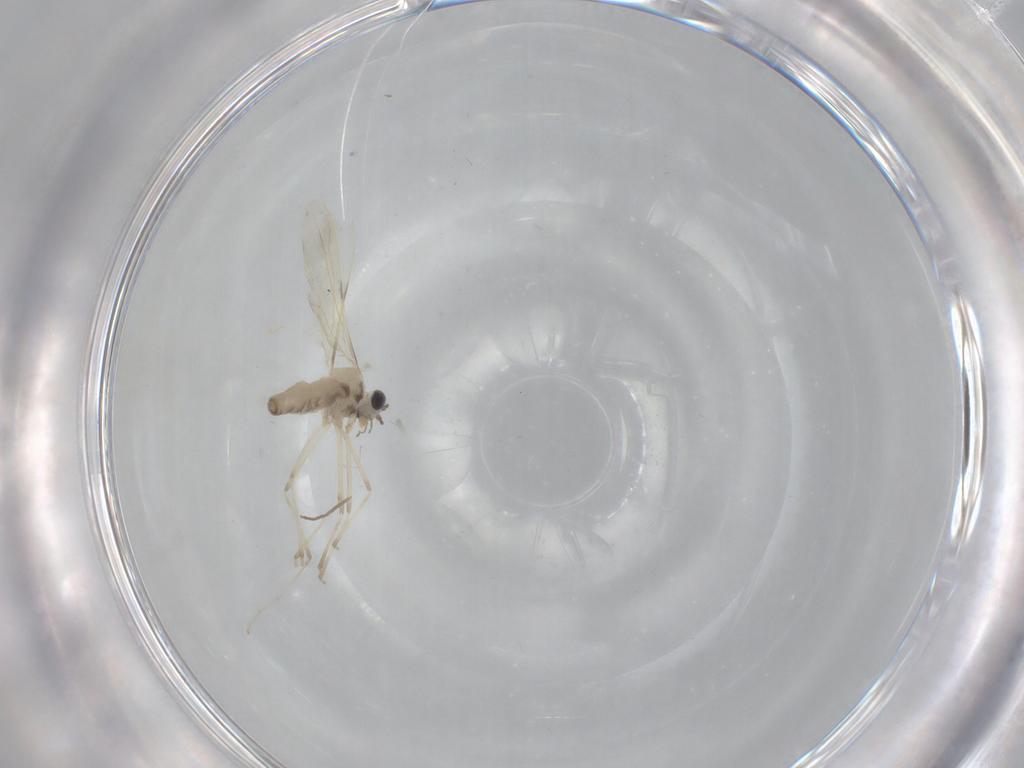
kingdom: Animalia
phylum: Arthropoda
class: Insecta
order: Diptera
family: Cecidomyiidae
